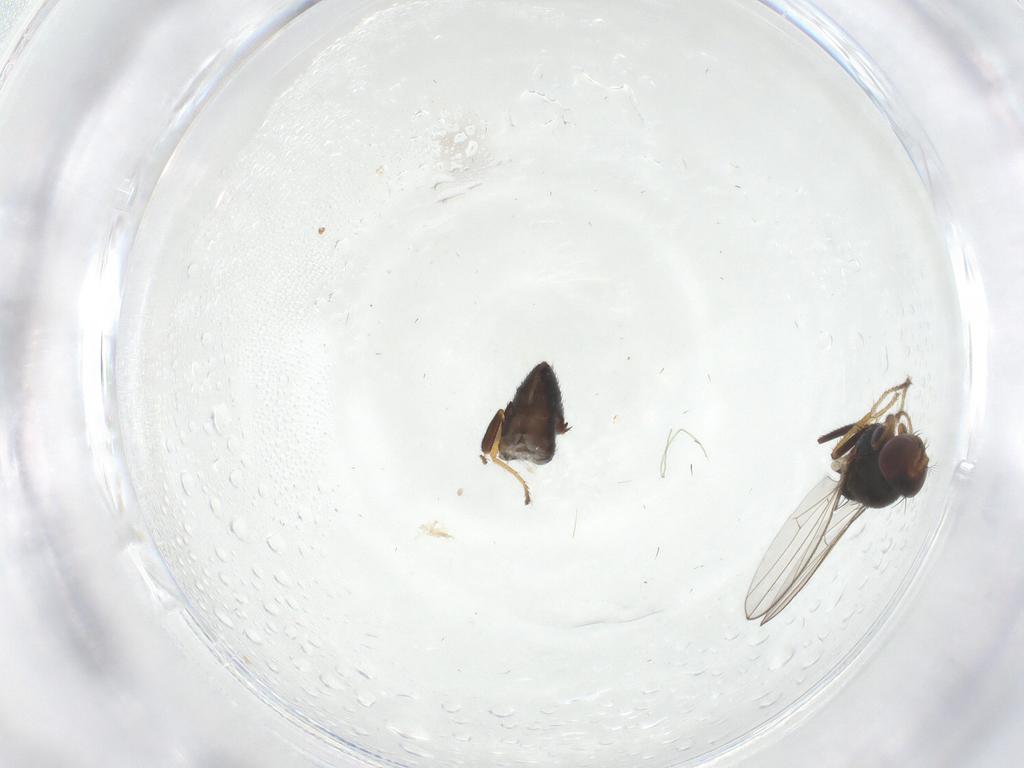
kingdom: Animalia
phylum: Arthropoda
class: Insecta
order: Diptera
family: Ephydridae
